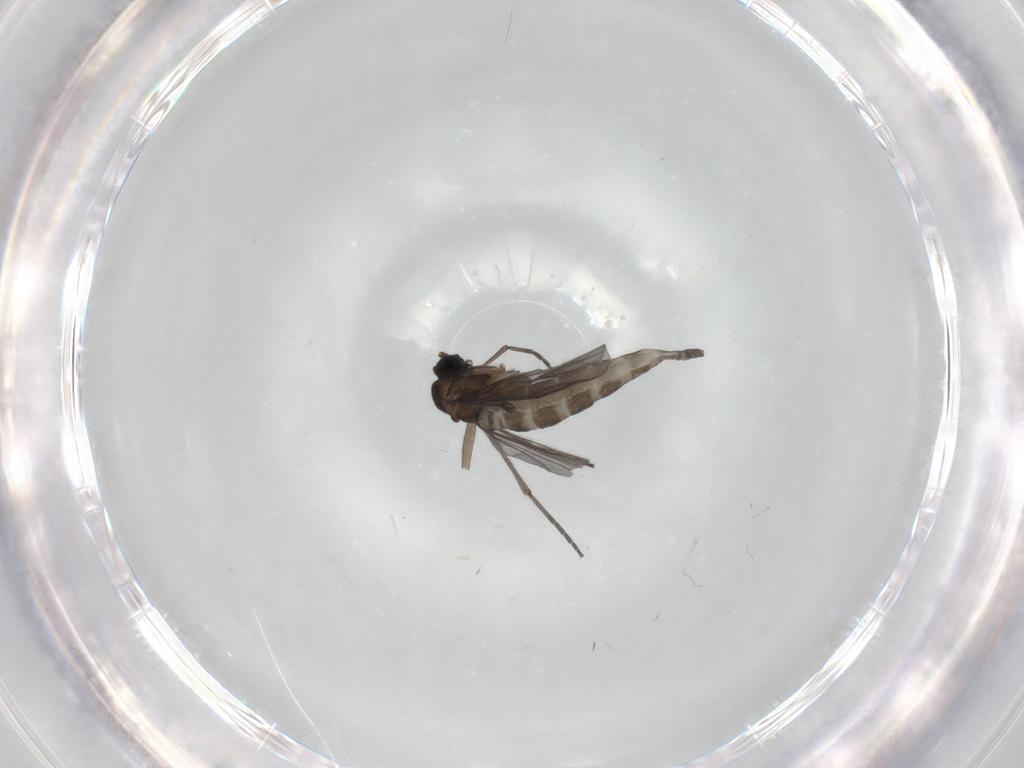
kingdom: Animalia
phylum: Arthropoda
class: Insecta
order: Diptera
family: Sciaridae
